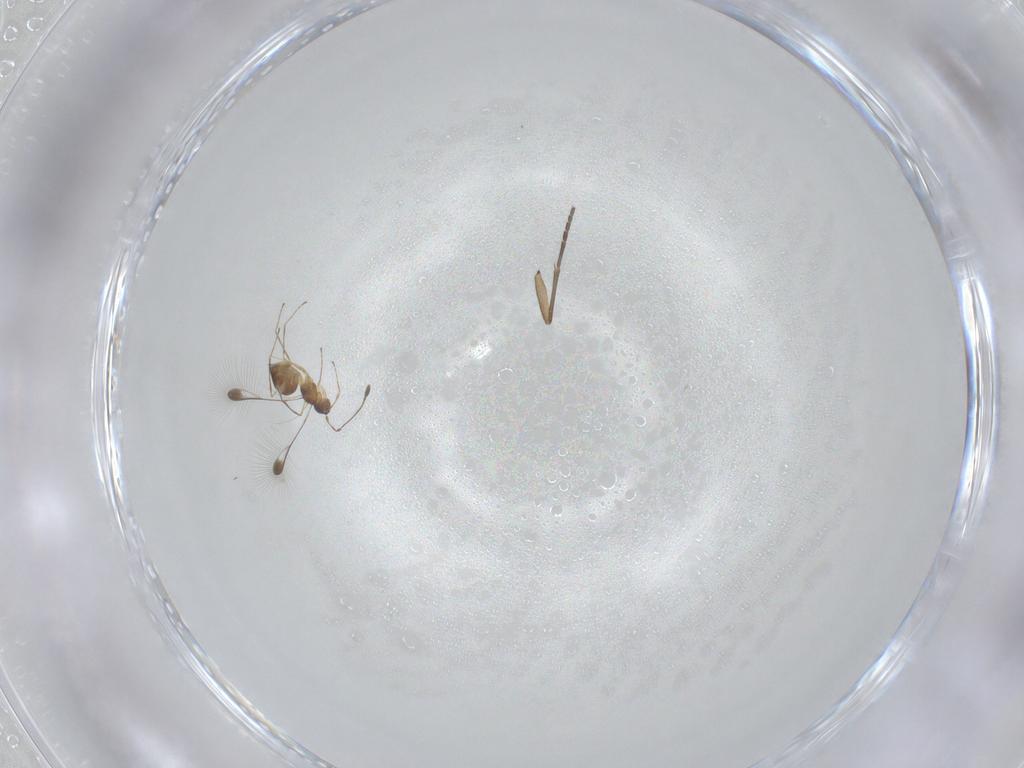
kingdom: Animalia
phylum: Arthropoda
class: Insecta
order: Hymenoptera
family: Mymaridae
